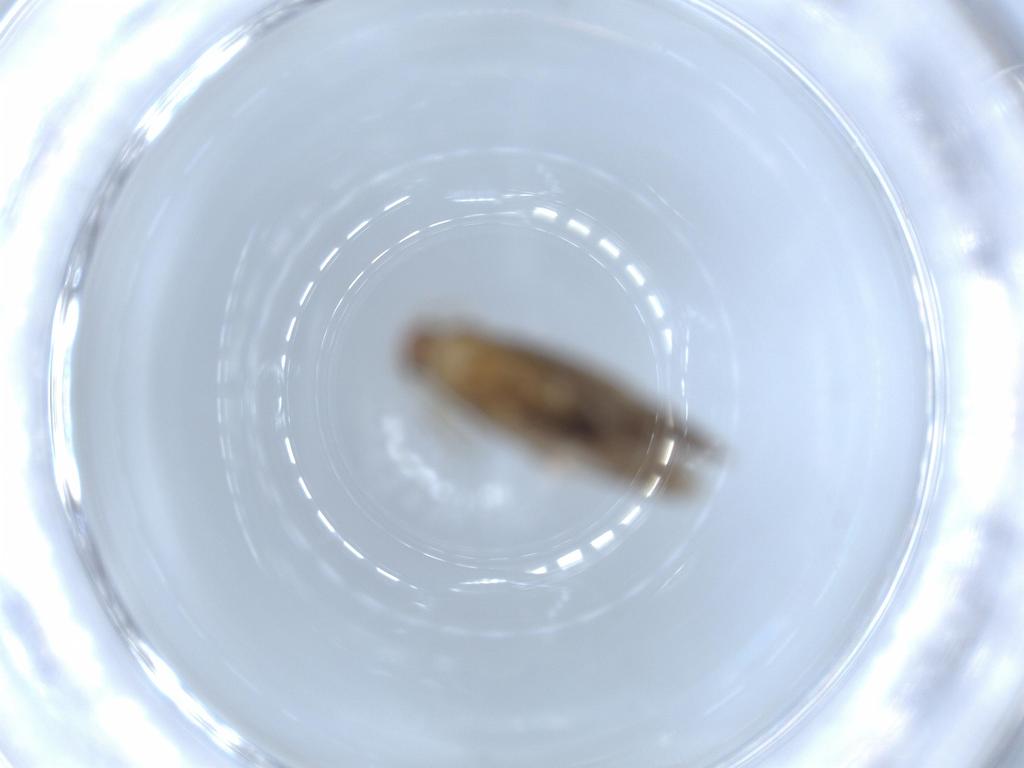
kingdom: Animalia
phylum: Arthropoda
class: Insecta
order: Lepidoptera
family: Tineidae
